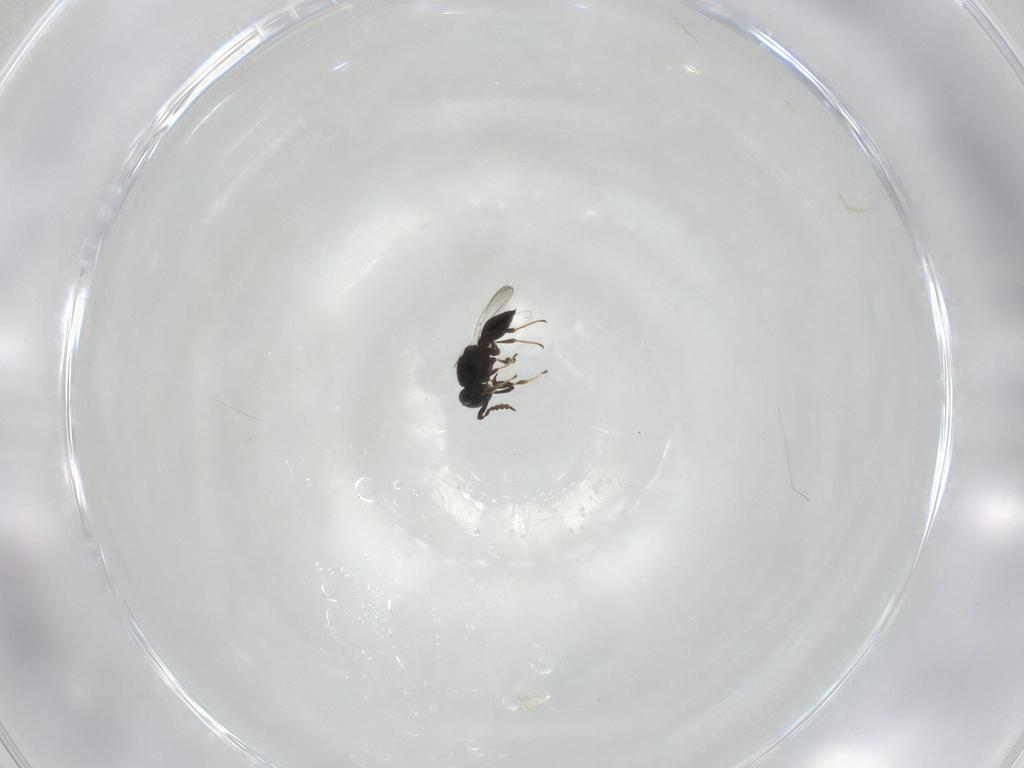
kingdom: Animalia
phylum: Arthropoda
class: Insecta
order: Hymenoptera
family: Platygastridae
